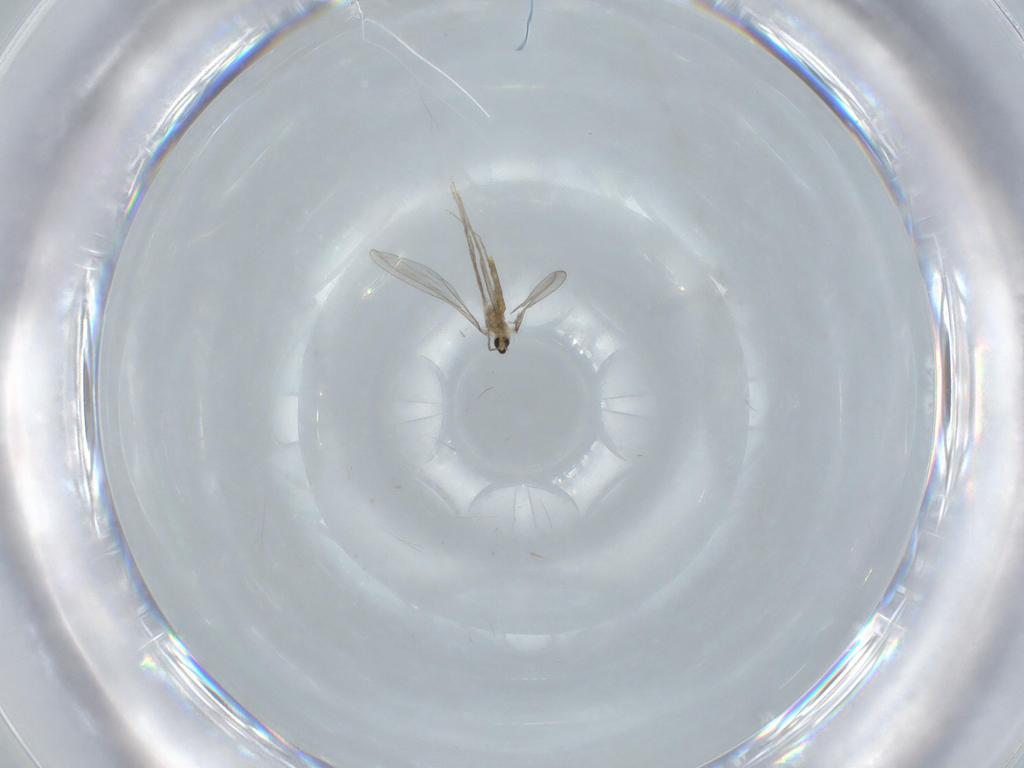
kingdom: Animalia
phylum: Arthropoda
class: Insecta
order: Diptera
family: Cecidomyiidae
